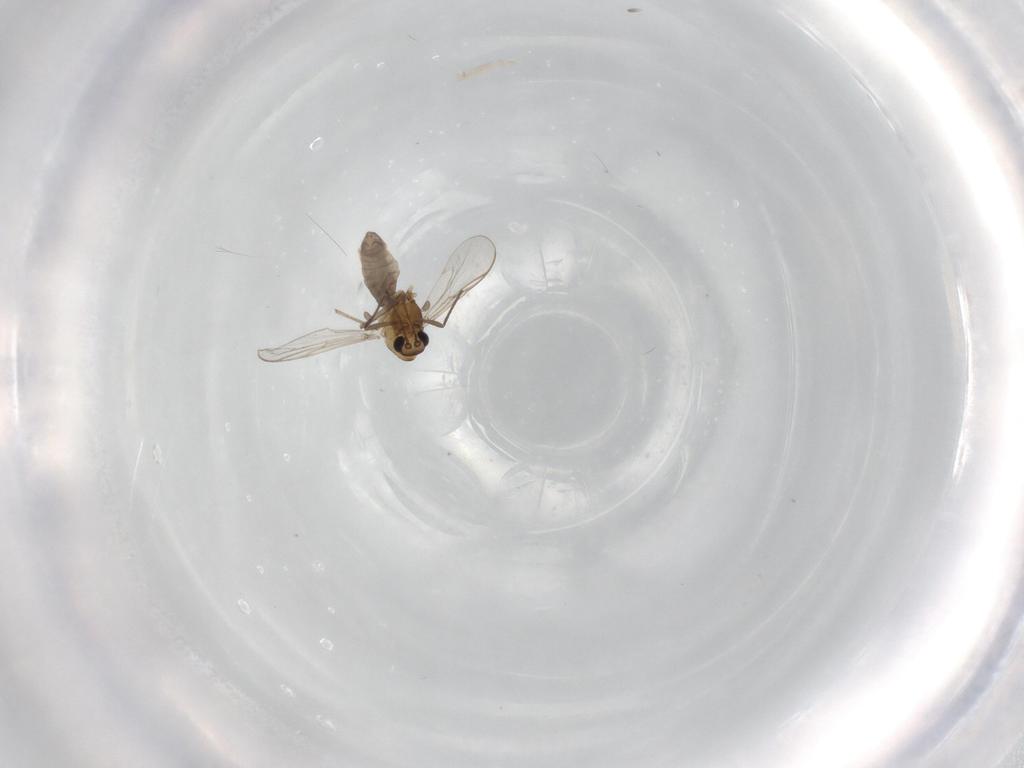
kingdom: Animalia
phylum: Arthropoda
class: Insecta
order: Diptera
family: Chironomidae
